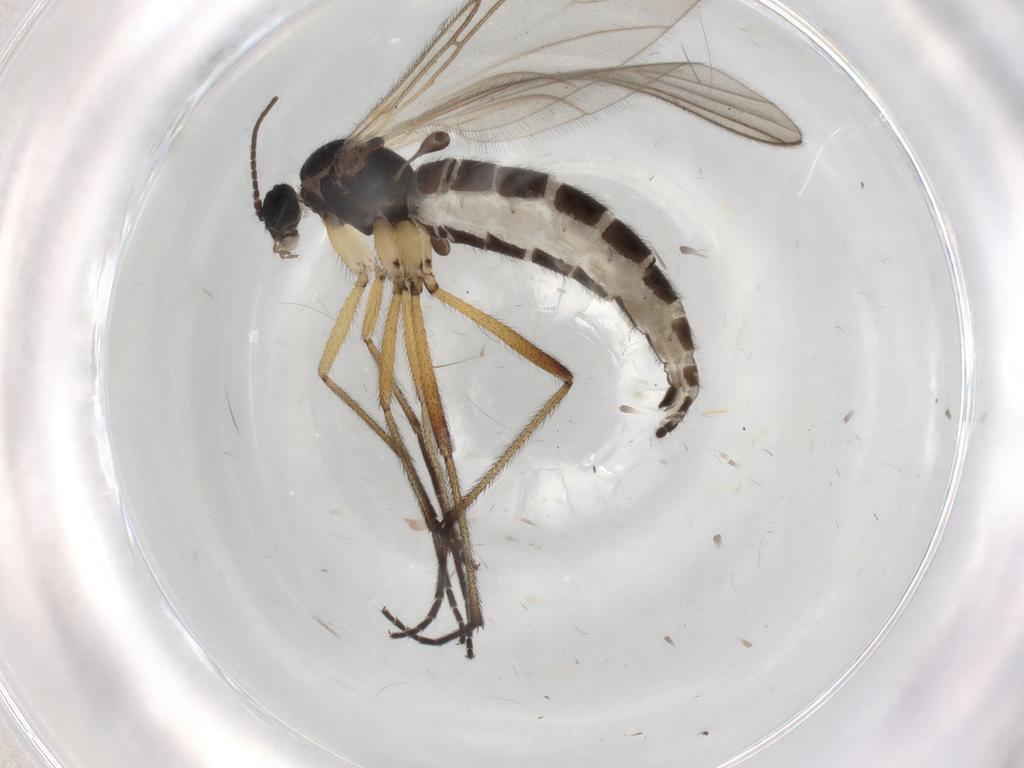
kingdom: Animalia
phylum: Arthropoda
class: Insecta
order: Diptera
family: Sciaridae
